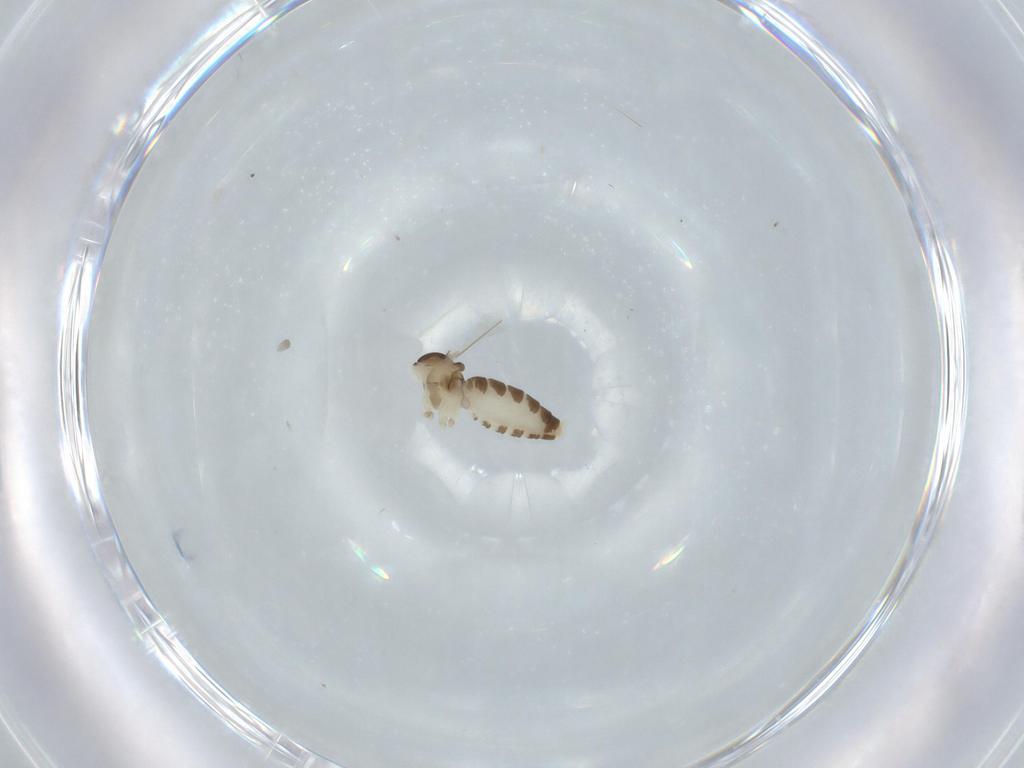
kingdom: Animalia
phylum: Arthropoda
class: Insecta
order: Diptera
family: Cecidomyiidae
